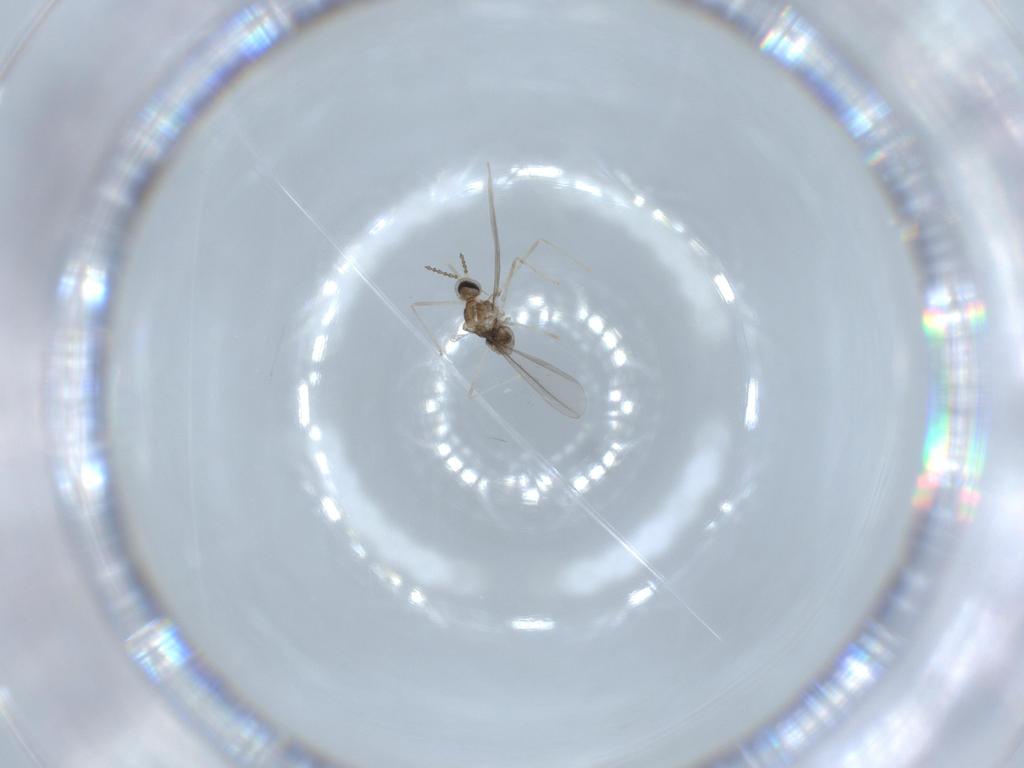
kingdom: Animalia
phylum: Arthropoda
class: Insecta
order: Diptera
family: Cecidomyiidae
